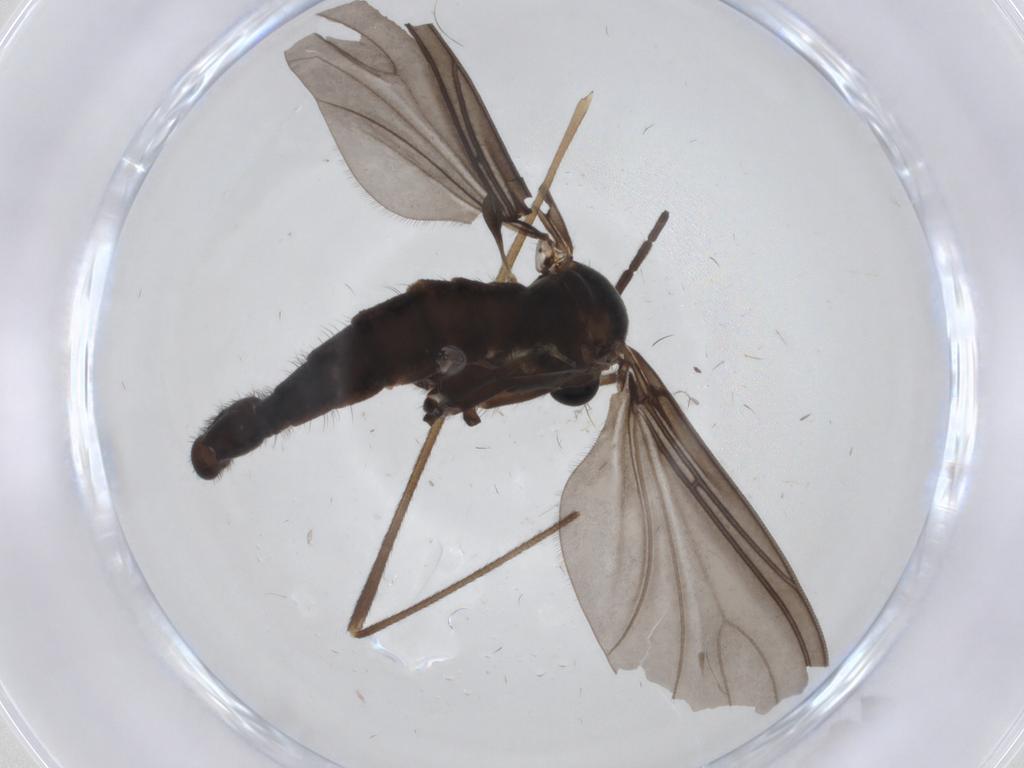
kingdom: Animalia
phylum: Arthropoda
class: Insecta
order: Diptera
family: Sciaridae
